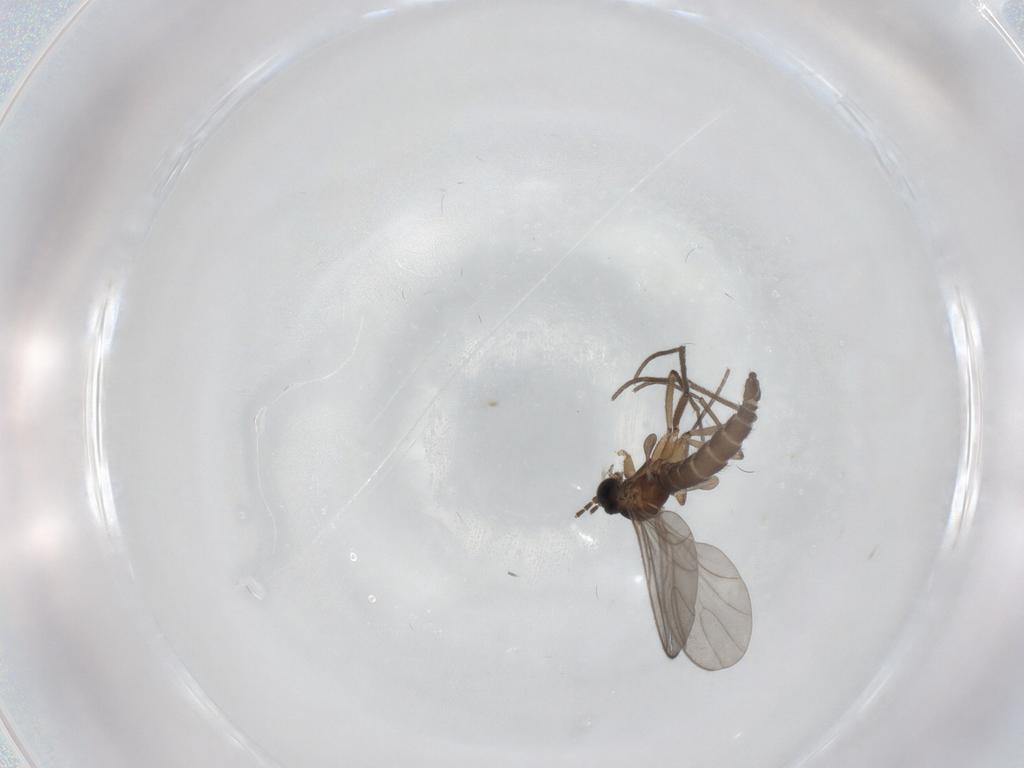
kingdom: Animalia
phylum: Arthropoda
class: Insecta
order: Diptera
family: Sciaridae
